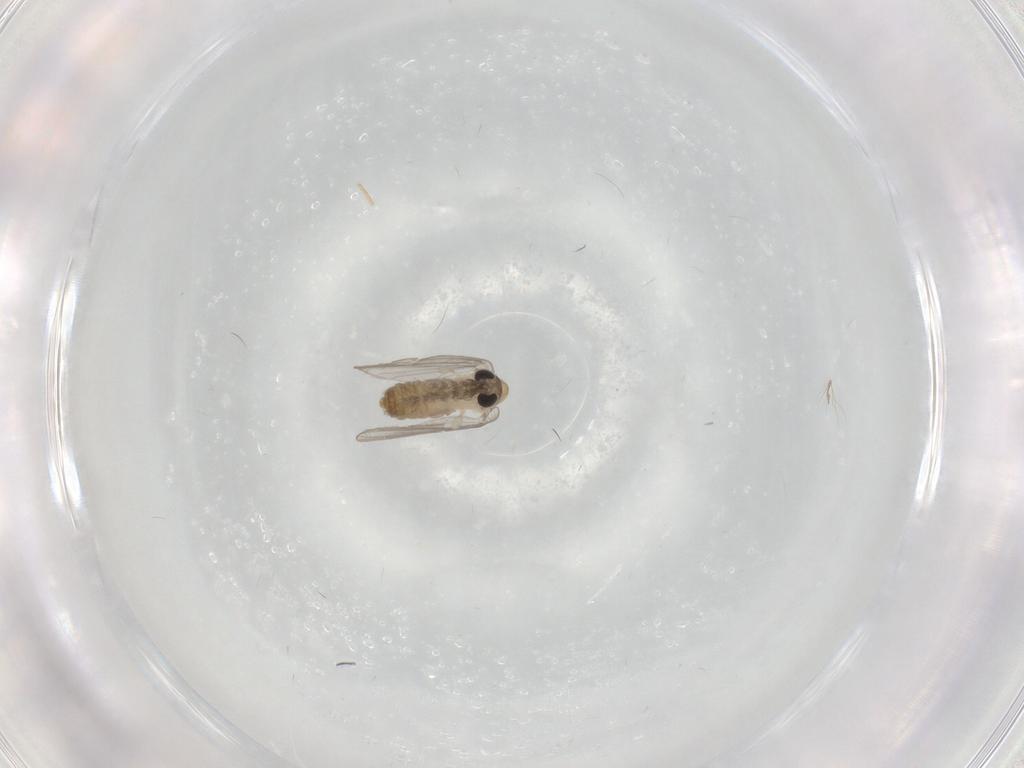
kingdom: Animalia
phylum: Arthropoda
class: Insecta
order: Diptera
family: Psychodidae
